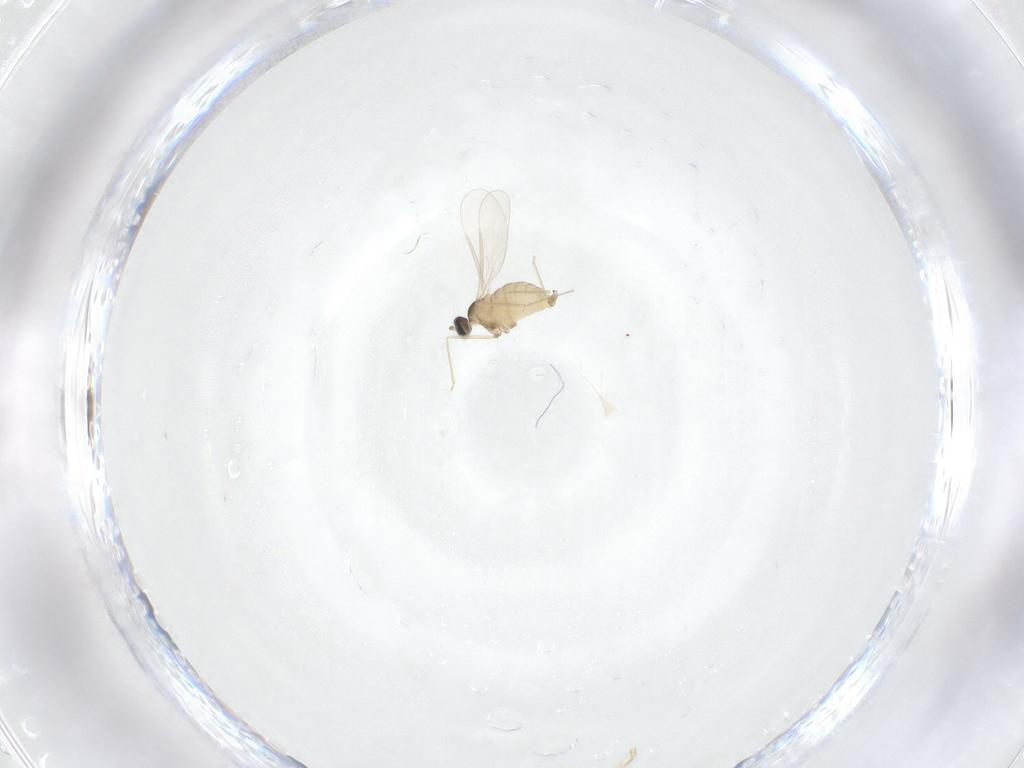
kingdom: Animalia
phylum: Arthropoda
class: Insecta
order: Diptera
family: Cecidomyiidae
